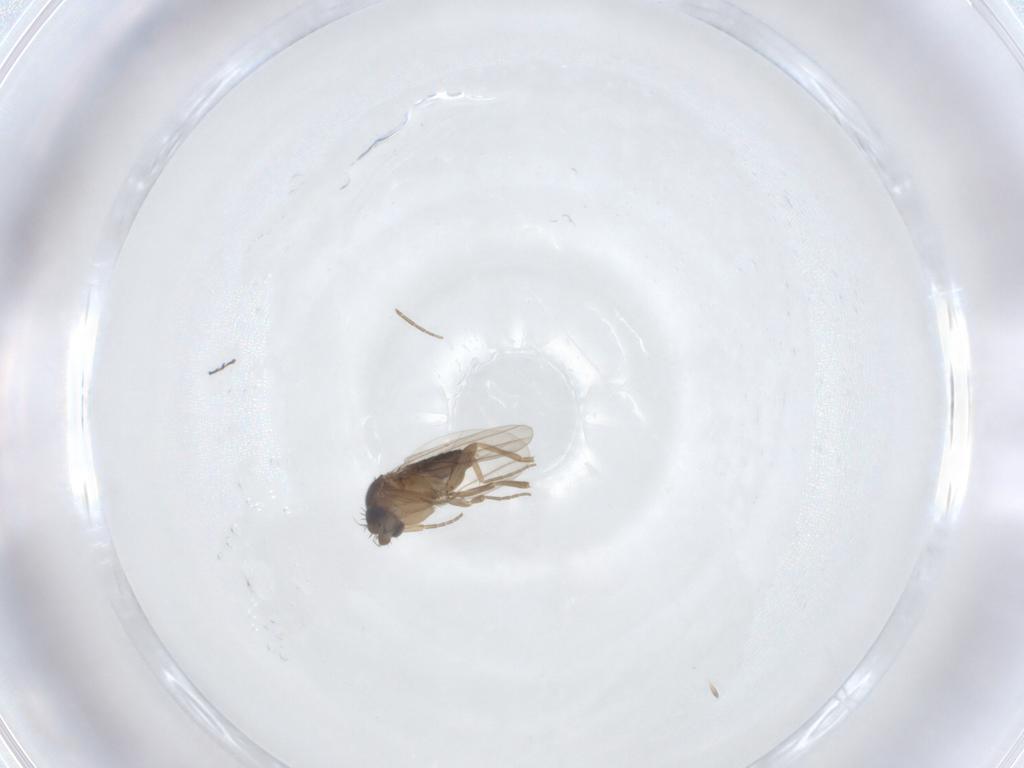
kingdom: Animalia
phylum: Arthropoda
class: Insecta
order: Diptera
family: Phoridae
